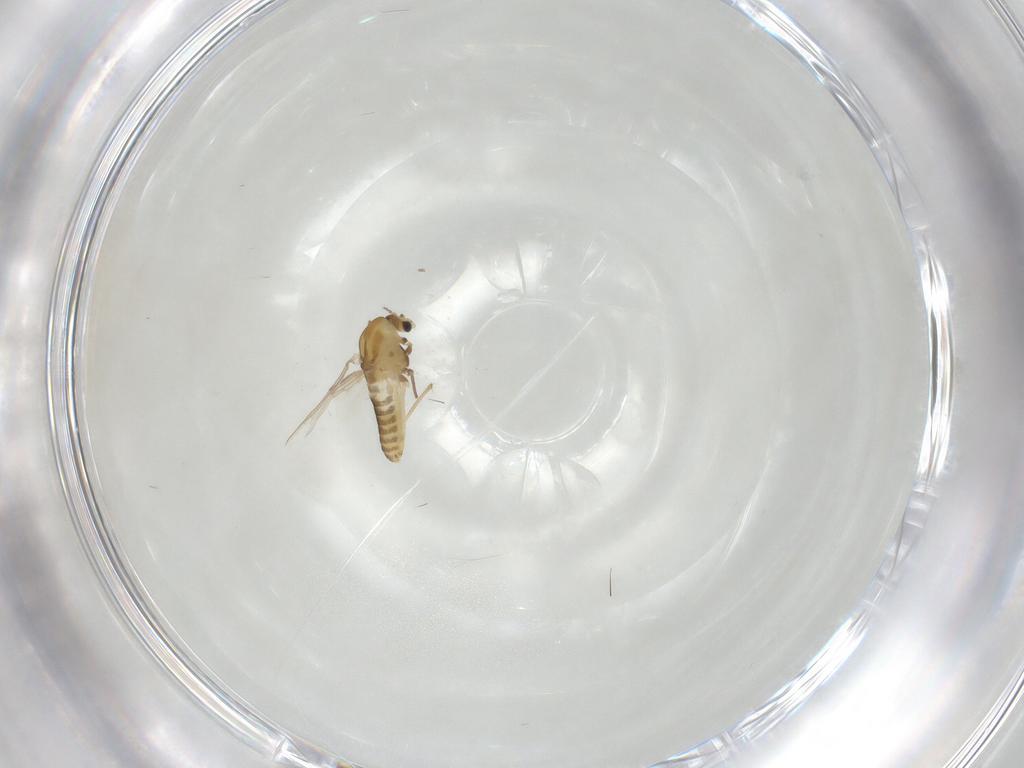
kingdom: Animalia
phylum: Arthropoda
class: Insecta
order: Diptera
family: Chironomidae
